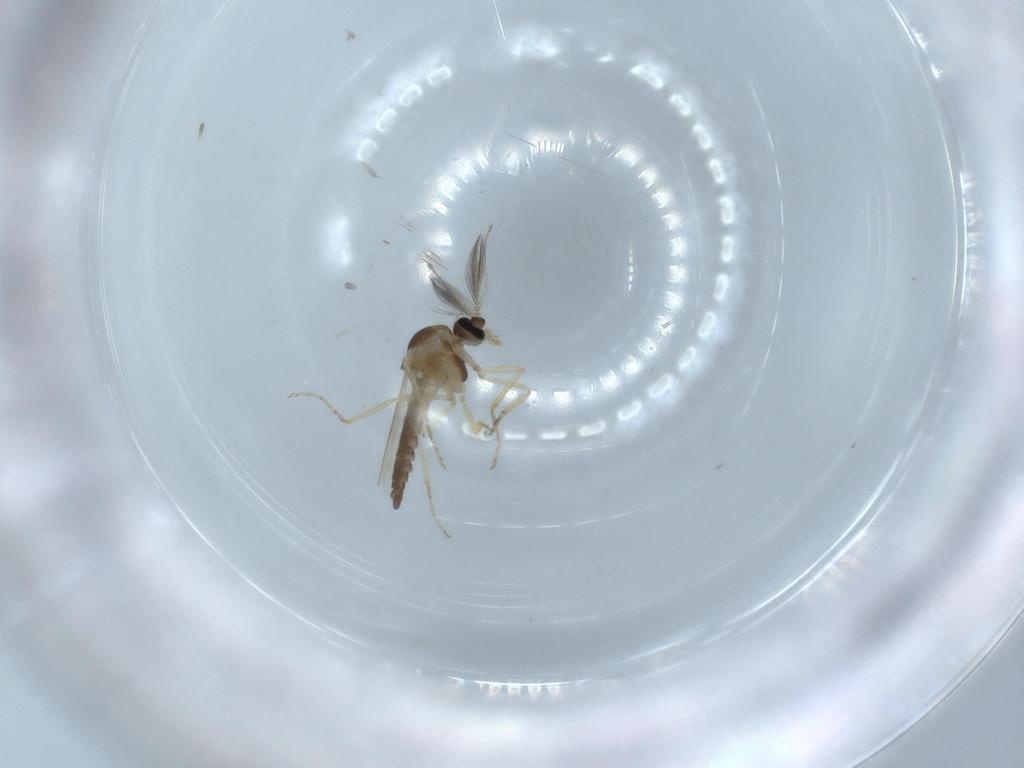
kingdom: Animalia
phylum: Arthropoda
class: Insecta
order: Diptera
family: Ceratopogonidae
